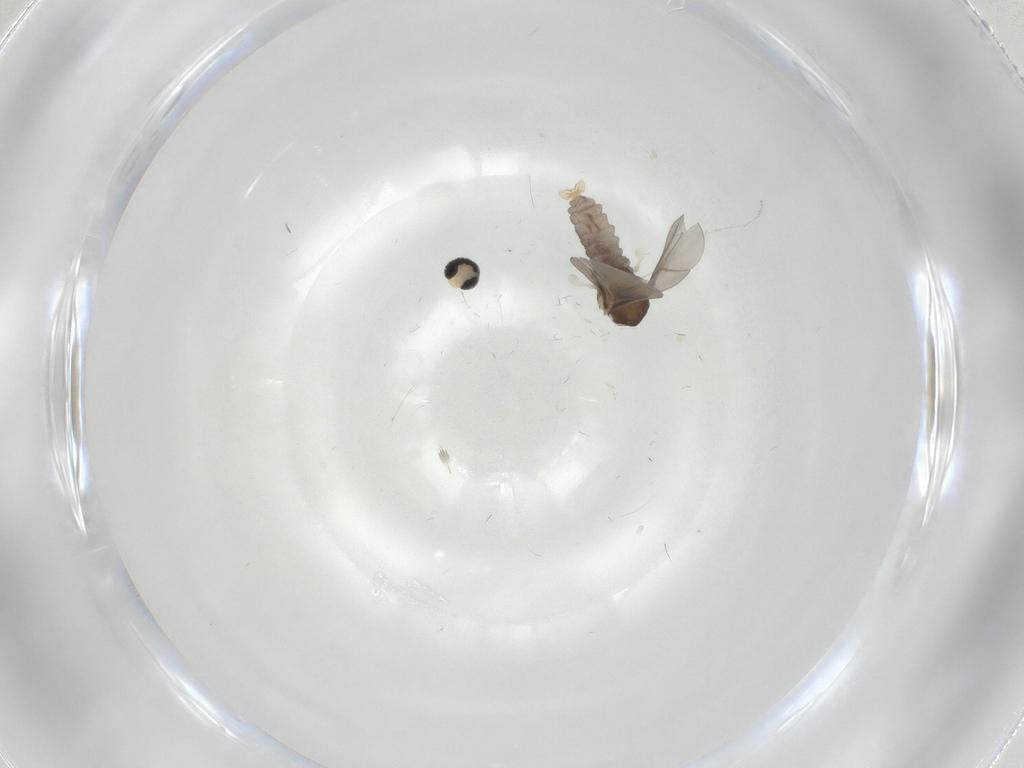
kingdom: Animalia
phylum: Arthropoda
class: Insecta
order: Diptera
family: Cecidomyiidae
